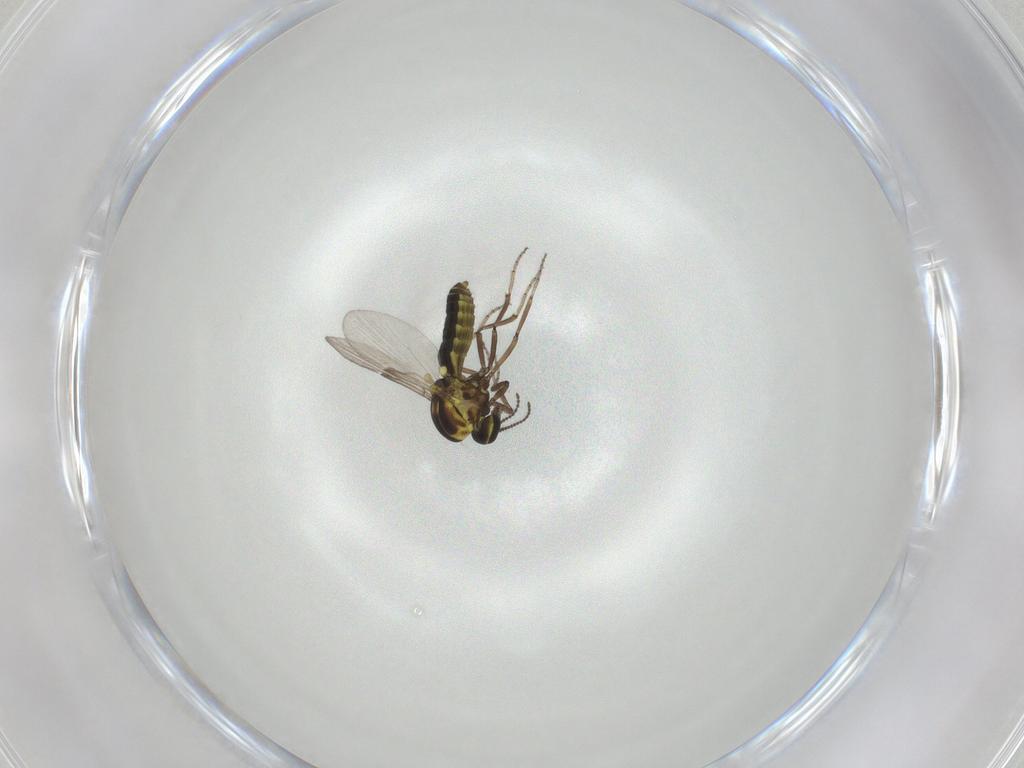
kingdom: Animalia
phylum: Arthropoda
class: Insecta
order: Diptera
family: Ceratopogonidae
